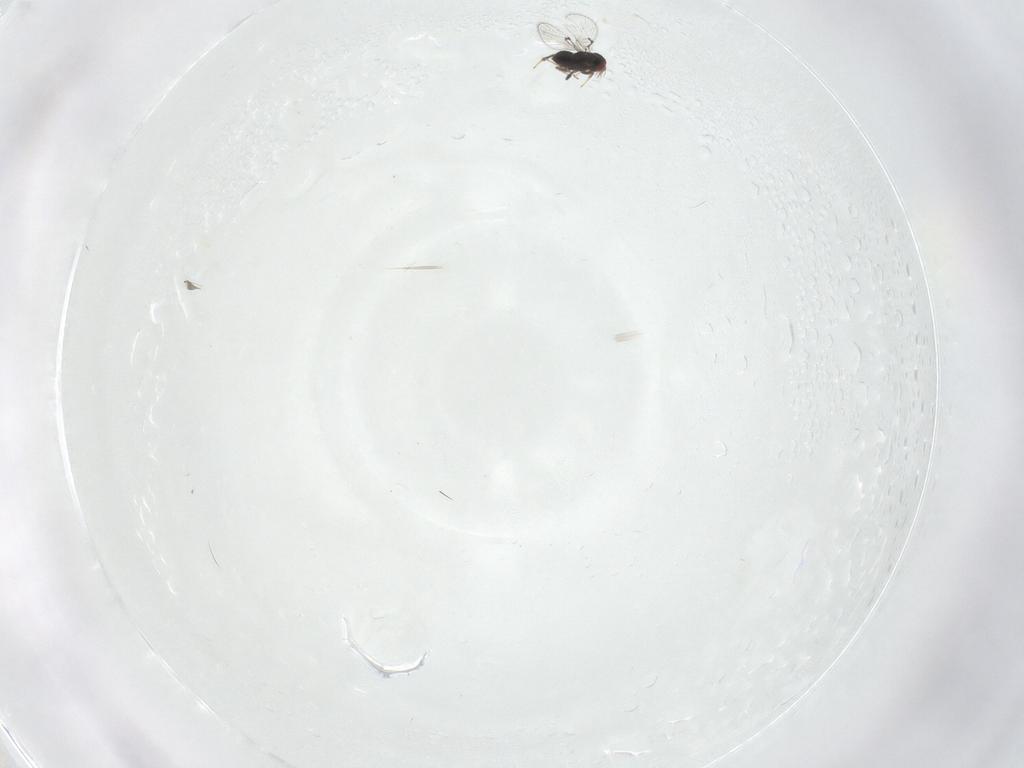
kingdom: Animalia
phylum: Arthropoda
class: Insecta
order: Hymenoptera
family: Trichogrammatidae
